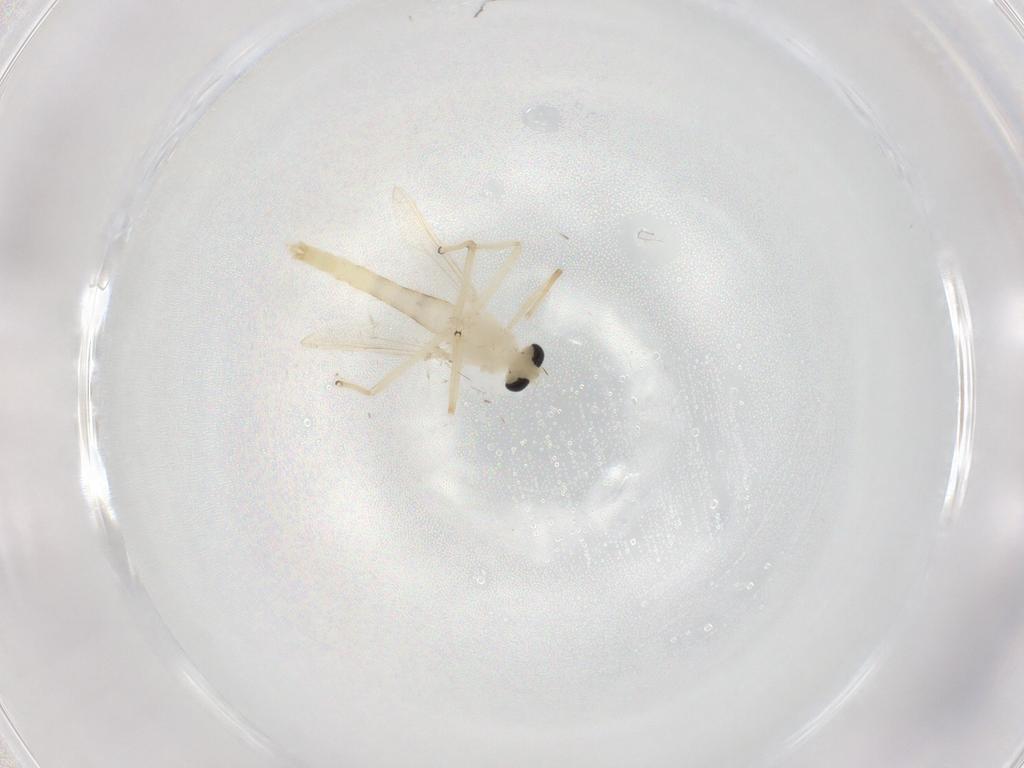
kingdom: Animalia
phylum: Arthropoda
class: Insecta
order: Diptera
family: Chironomidae
